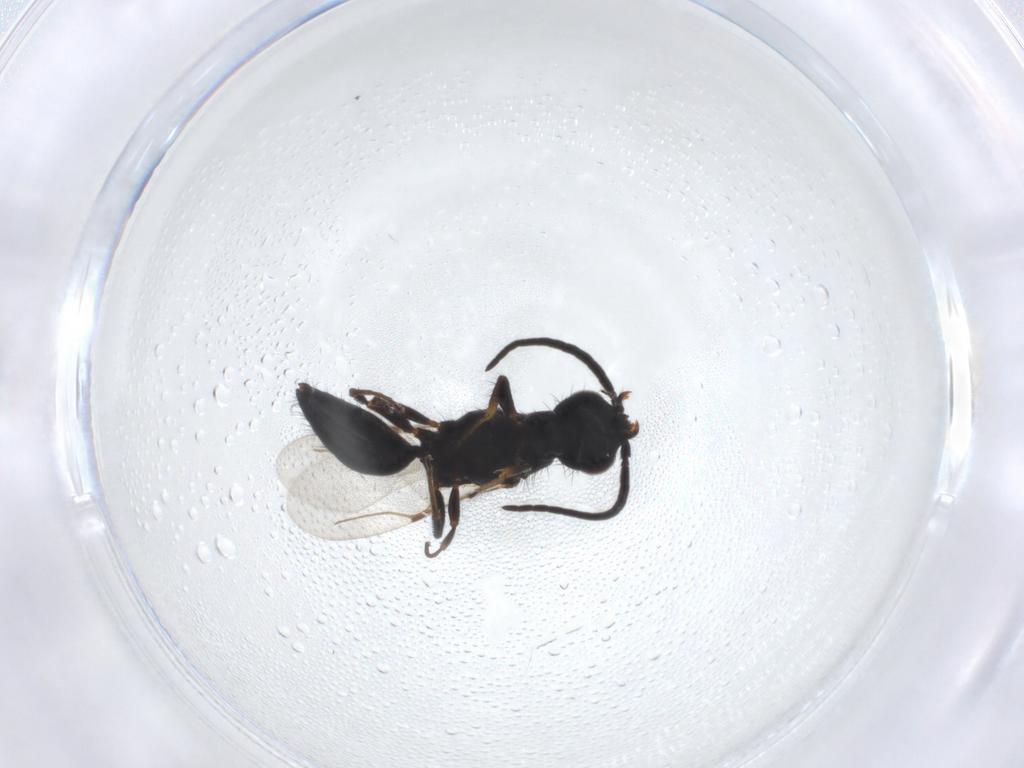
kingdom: Animalia
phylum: Arthropoda
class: Insecta
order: Hymenoptera
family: Bethylidae
